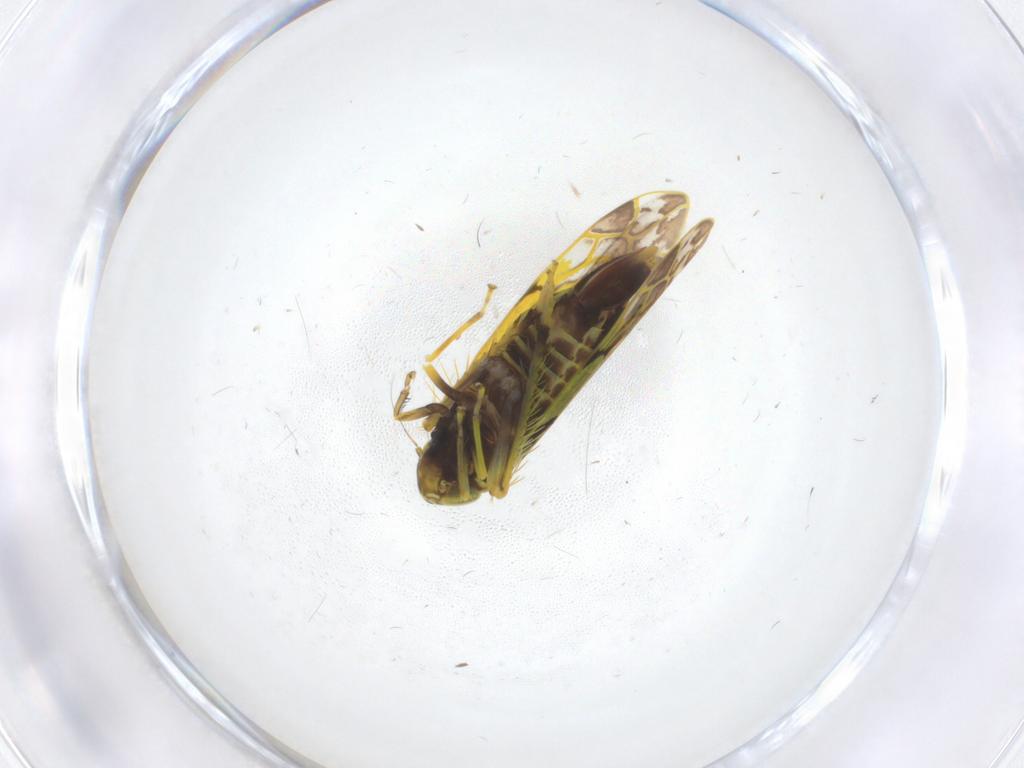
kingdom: Animalia
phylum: Arthropoda
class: Insecta
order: Hemiptera
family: Cicadellidae
